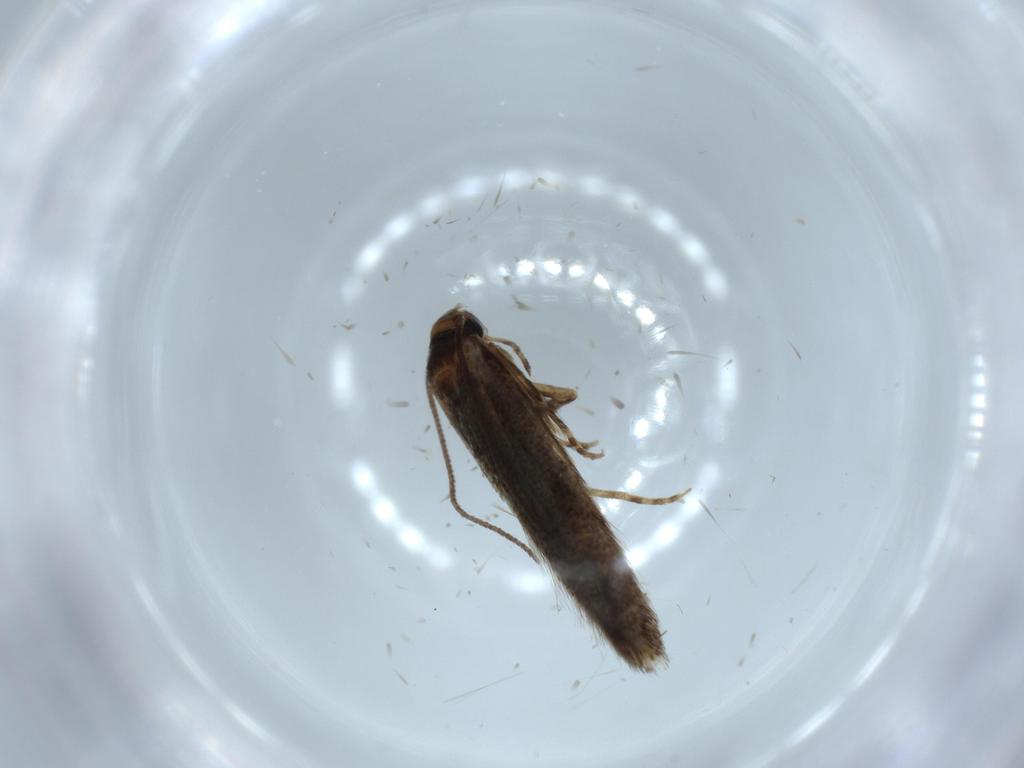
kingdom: Animalia
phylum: Arthropoda
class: Insecta
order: Lepidoptera
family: Elachistidae
